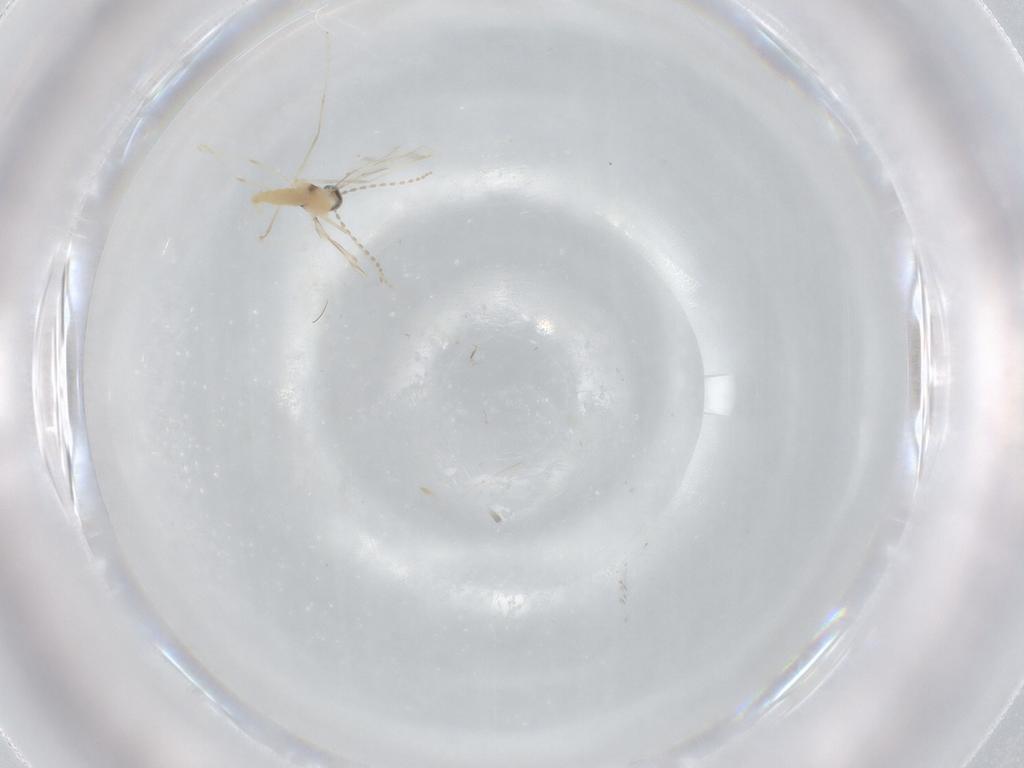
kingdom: Animalia
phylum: Arthropoda
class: Insecta
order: Diptera
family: Cecidomyiidae
